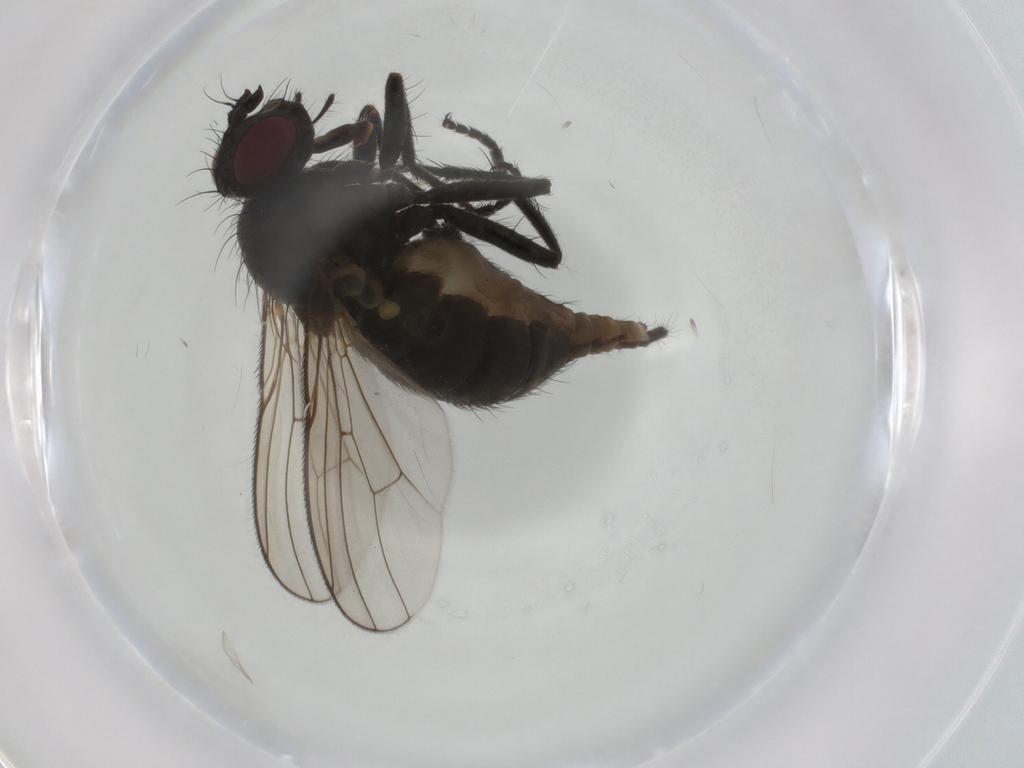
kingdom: Animalia
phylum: Arthropoda
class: Insecta
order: Diptera
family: Muscidae
